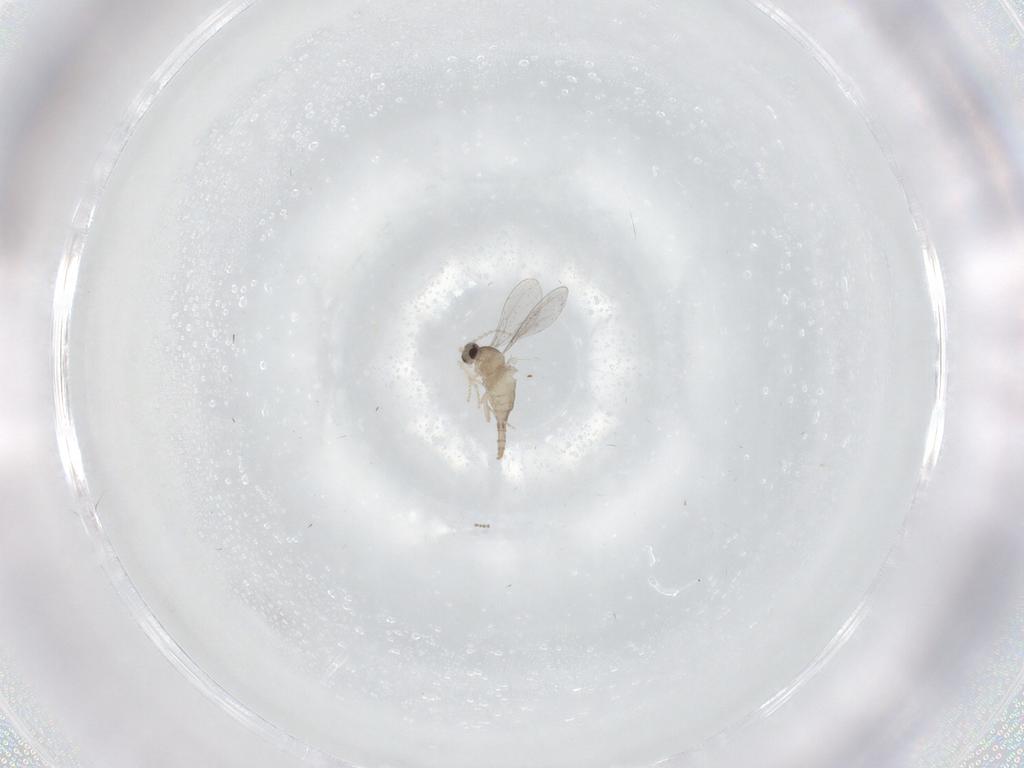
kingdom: Animalia
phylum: Arthropoda
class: Insecta
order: Diptera
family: Cecidomyiidae
